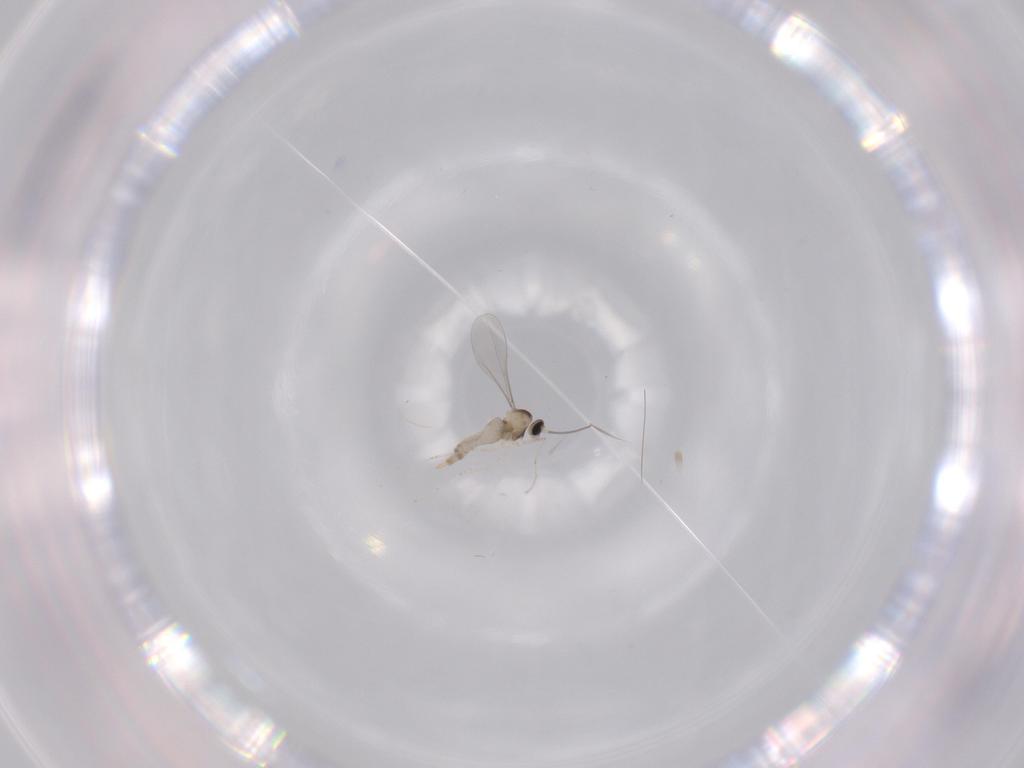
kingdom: Animalia
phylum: Arthropoda
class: Insecta
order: Diptera
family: Cecidomyiidae
